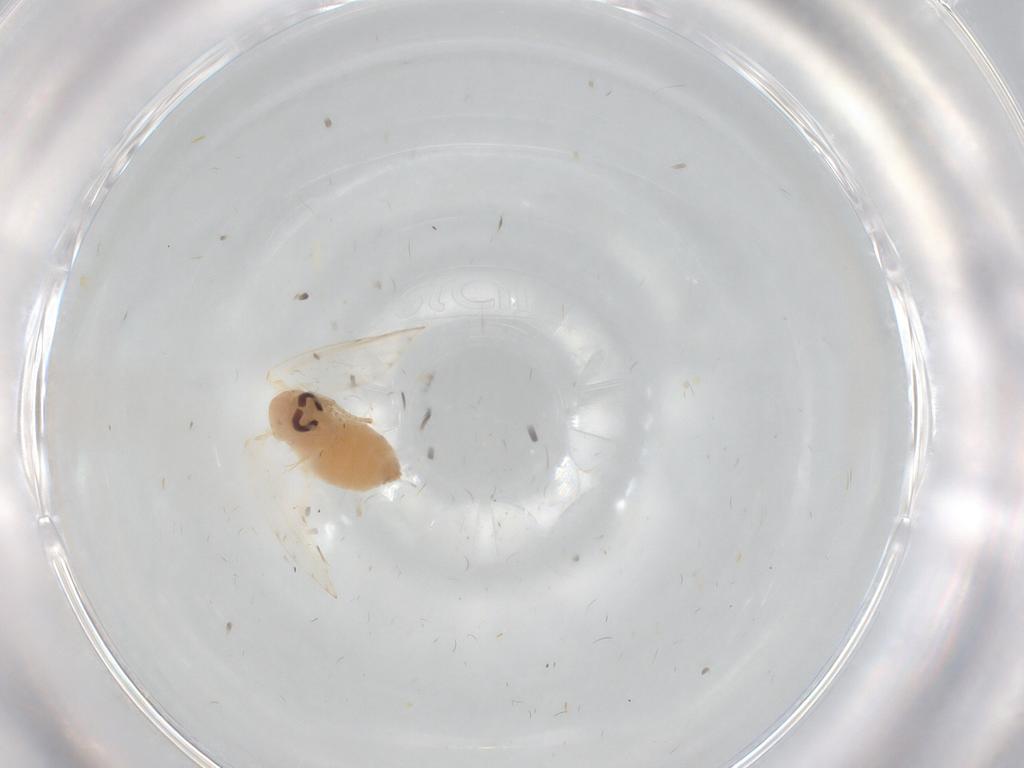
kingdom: Animalia
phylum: Arthropoda
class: Insecta
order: Diptera
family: Psychodidae
